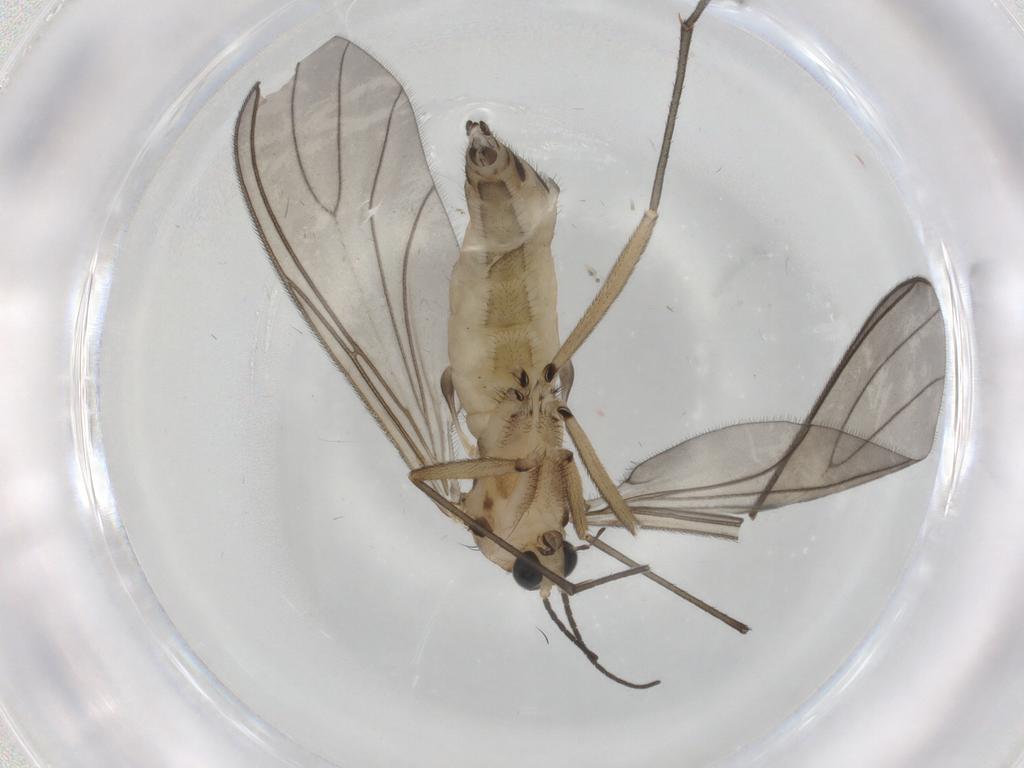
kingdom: Animalia
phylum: Arthropoda
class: Insecta
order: Diptera
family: Sciaridae
